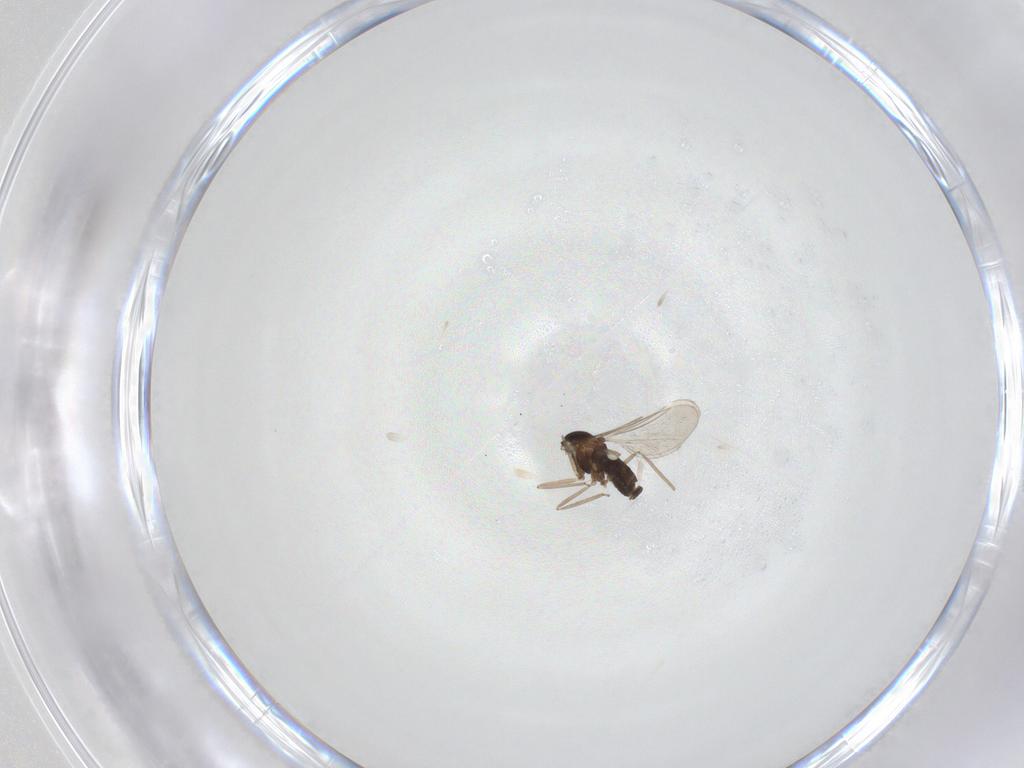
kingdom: Animalia
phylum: Arthropoda
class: Insecta
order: Diptera
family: Cecidomyiidae
